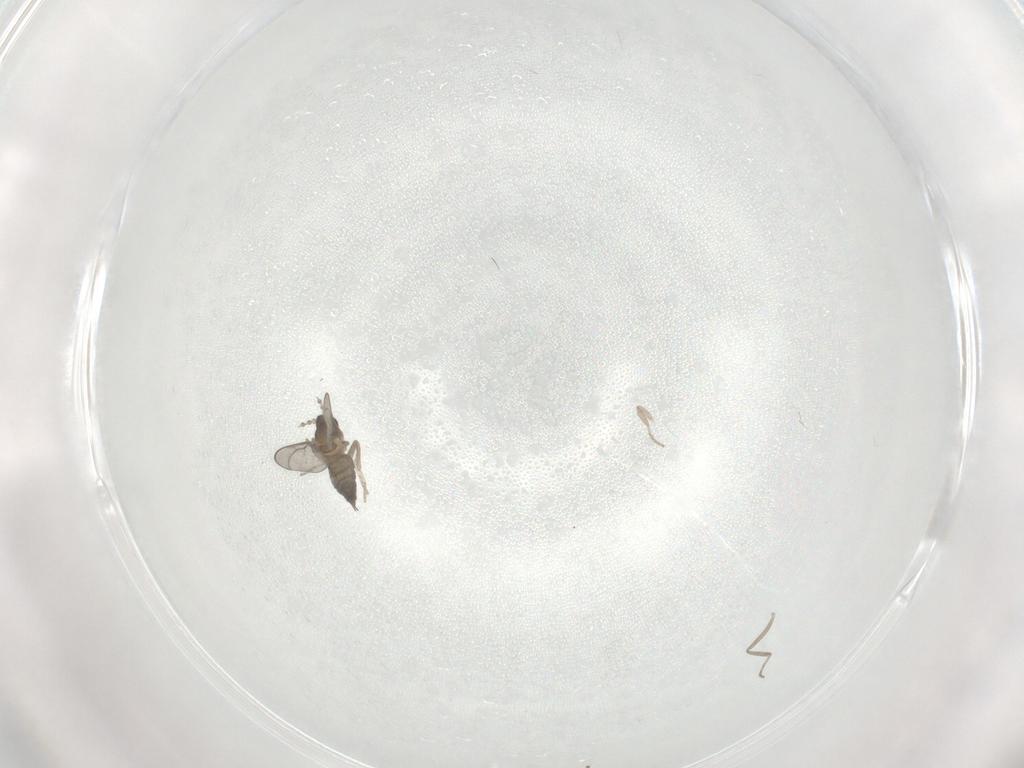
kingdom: Animalia
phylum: Arthropoda
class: Insecta
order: Diptera
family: Cecidomyiidae
